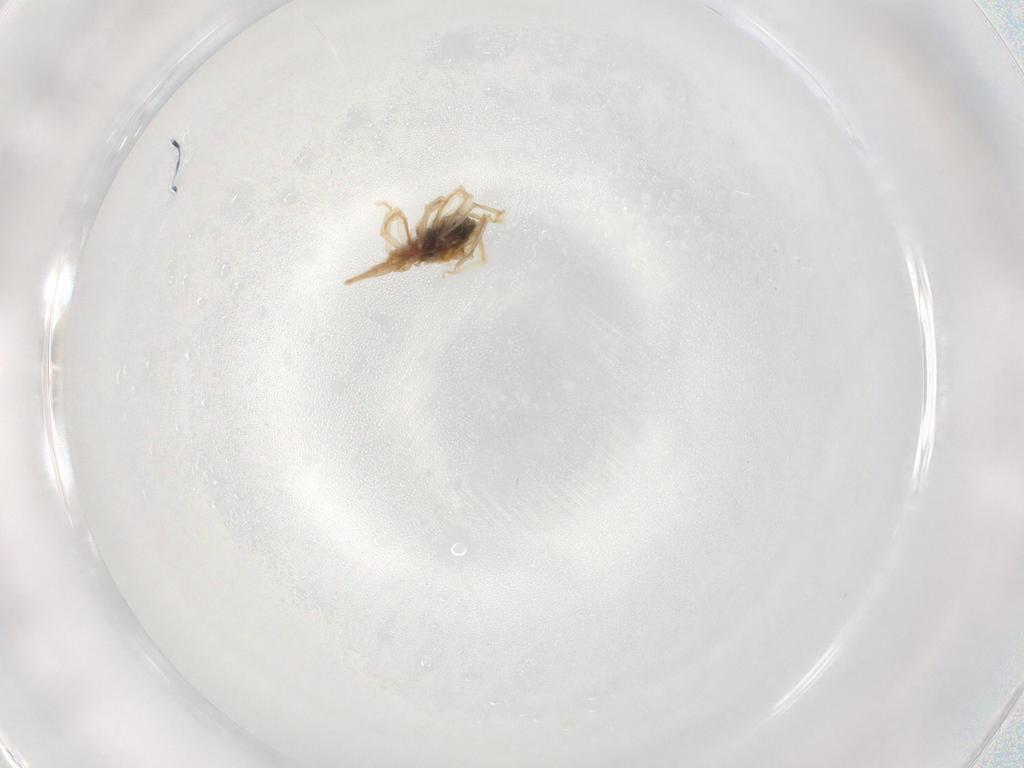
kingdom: Animalia
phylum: Arthropoda
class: Arachnida
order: Trombidiformes
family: Bdellidae
